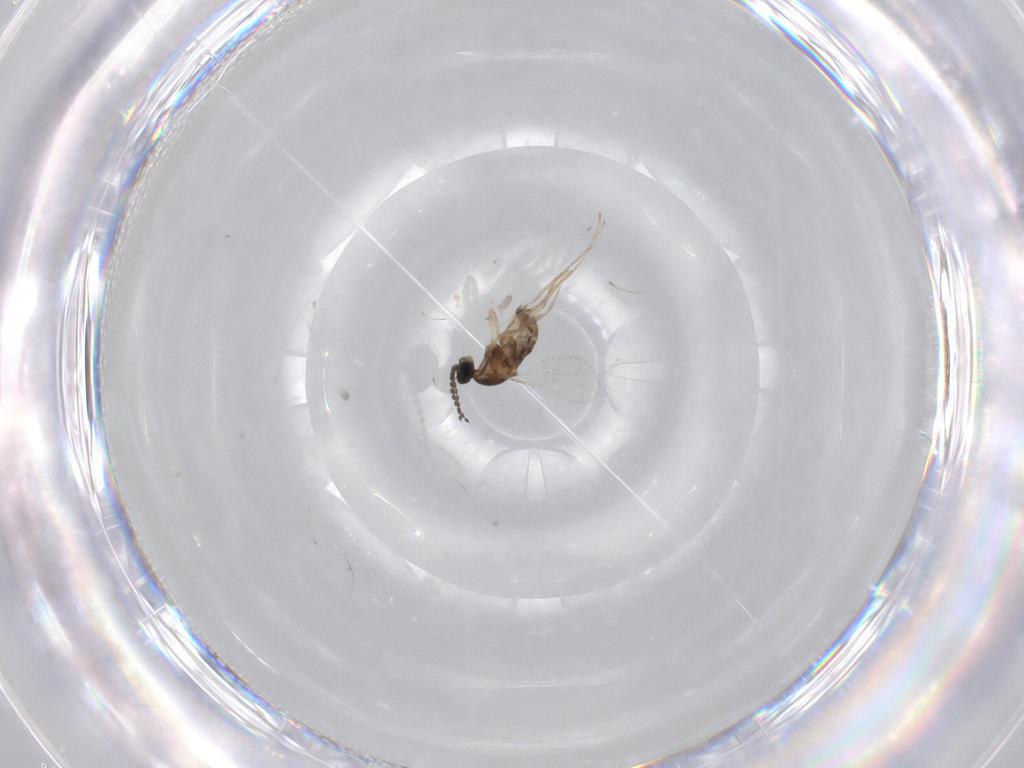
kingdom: Animalia
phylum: Arthropoda
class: Insecta
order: Diptera
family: Cecidomyiidae
